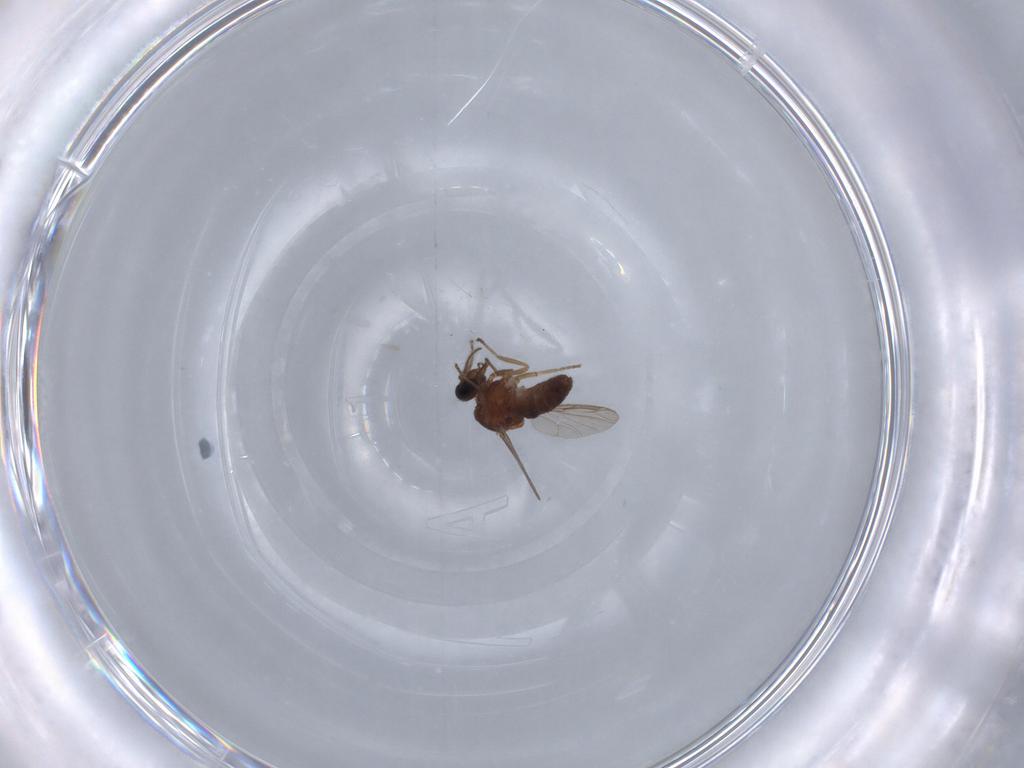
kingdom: Animalia
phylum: Arthropoda
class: Insecta
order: Diptera
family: Ceratopogonidae
